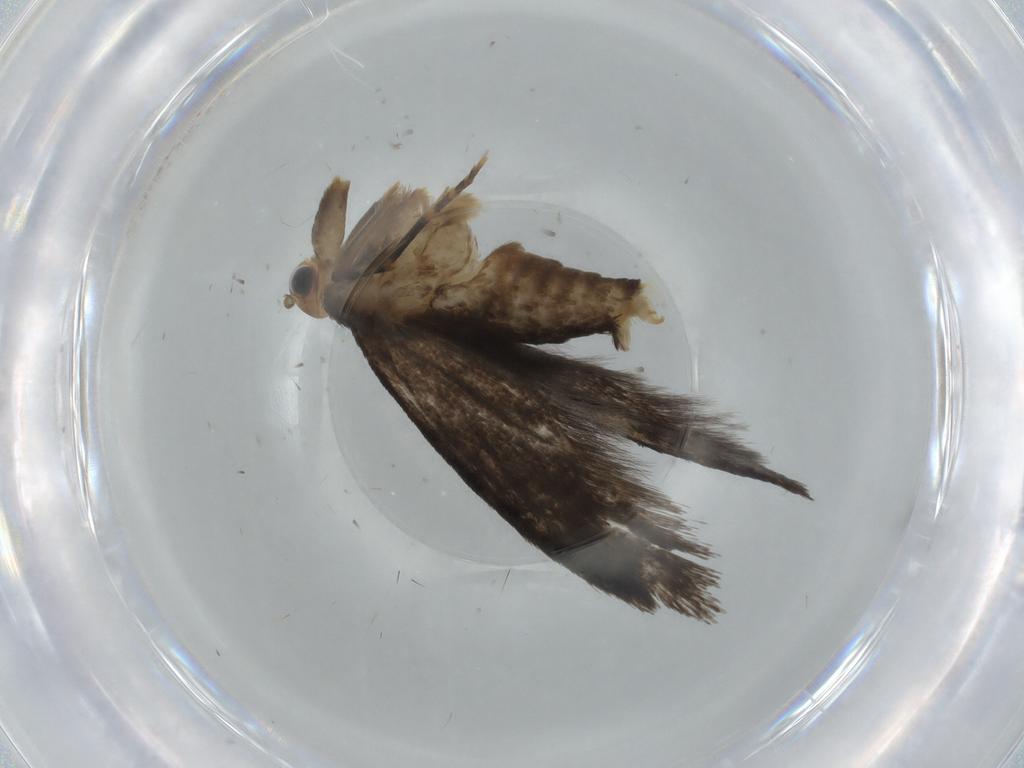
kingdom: Animalia
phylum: Arthropoda
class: Insecta
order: Lepidoptera
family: Tineidae
